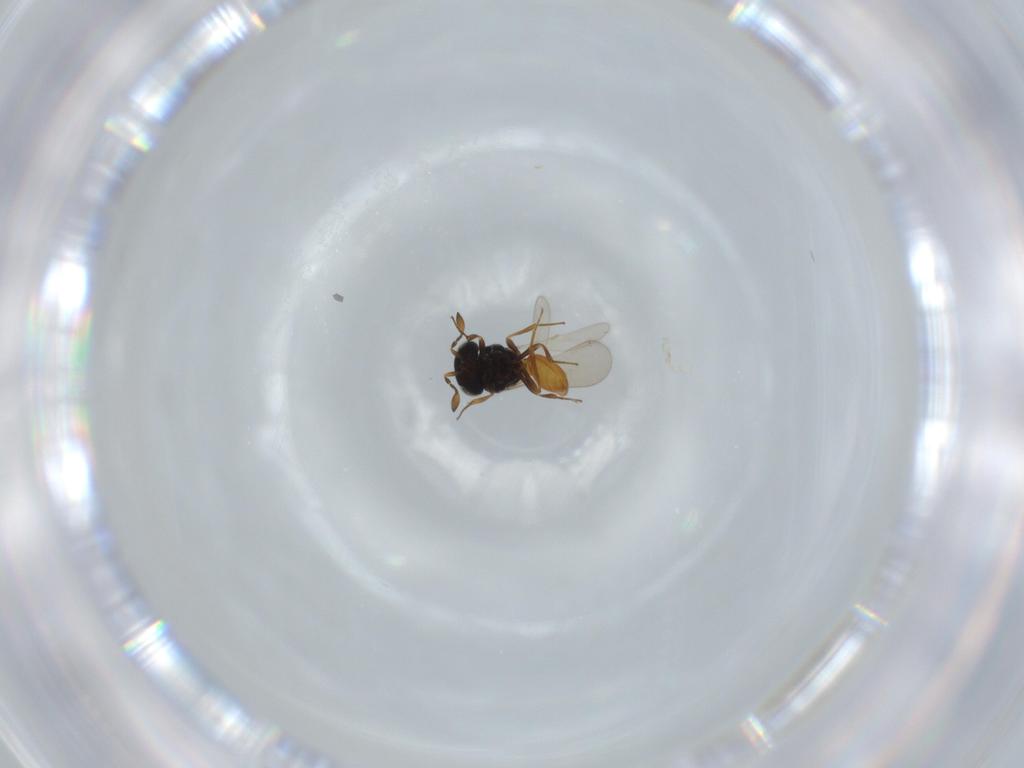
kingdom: Animalia
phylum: Arthropoda
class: Insecta
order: Hymenoptera
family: Scelionidae
